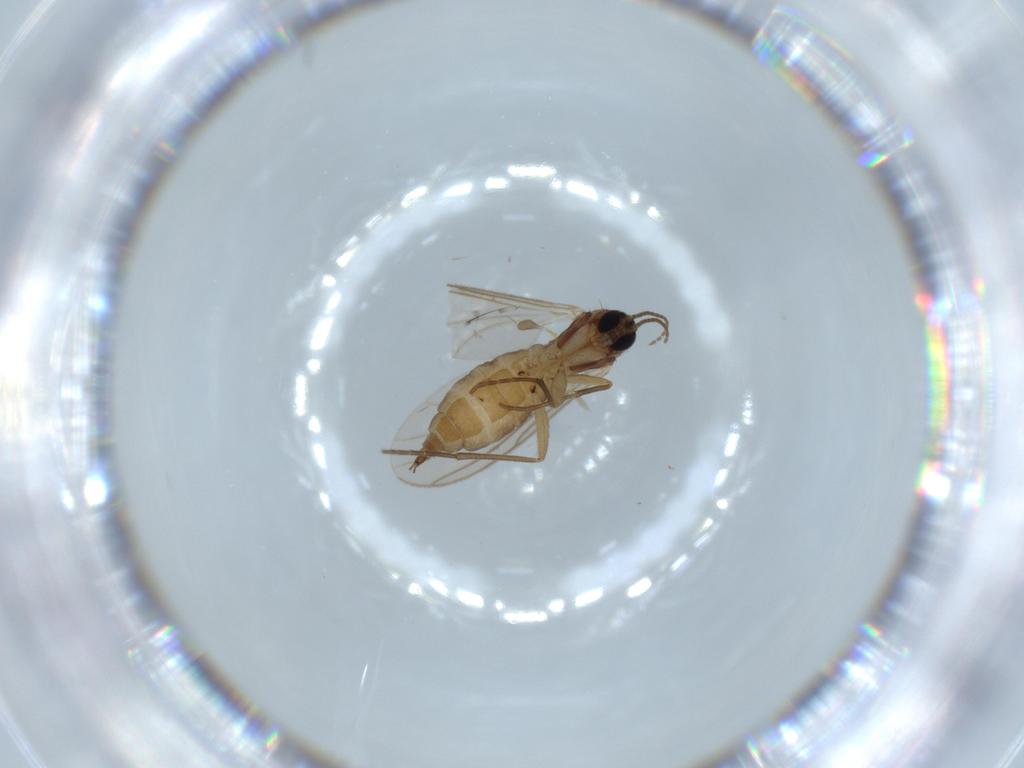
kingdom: Animalia
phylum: Arthropoda
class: Insecta
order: Diptera
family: Sciaridae
